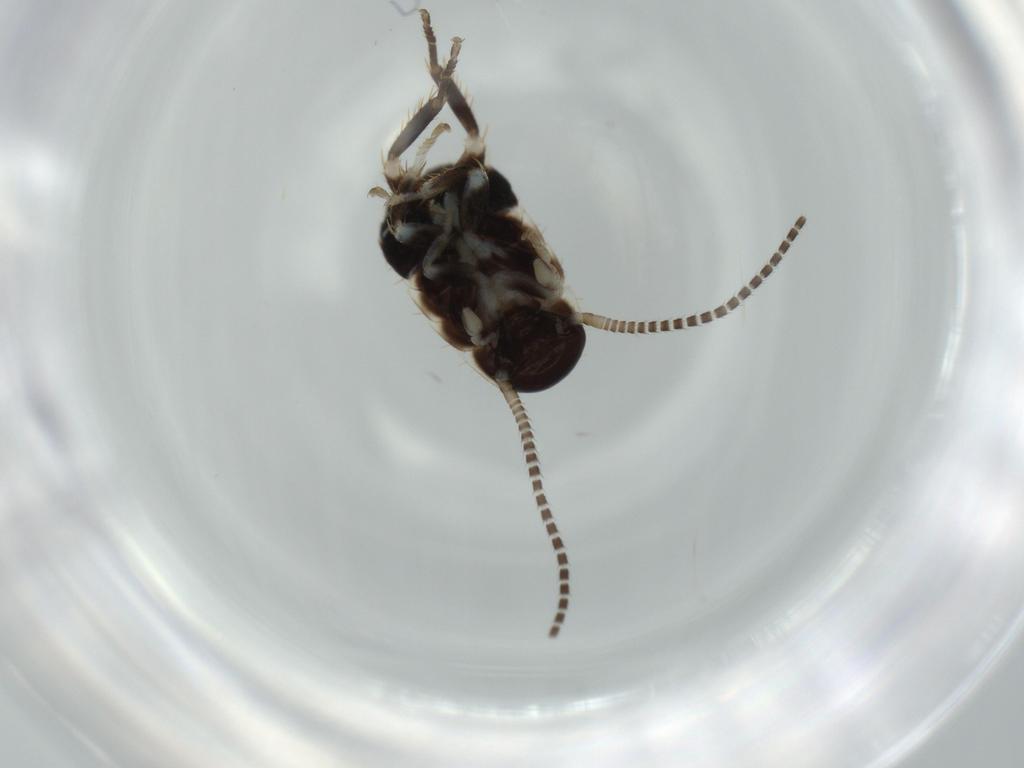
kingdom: Animalia
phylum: Arthropoda
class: Insecta
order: Blattodea
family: Ectobiidae
